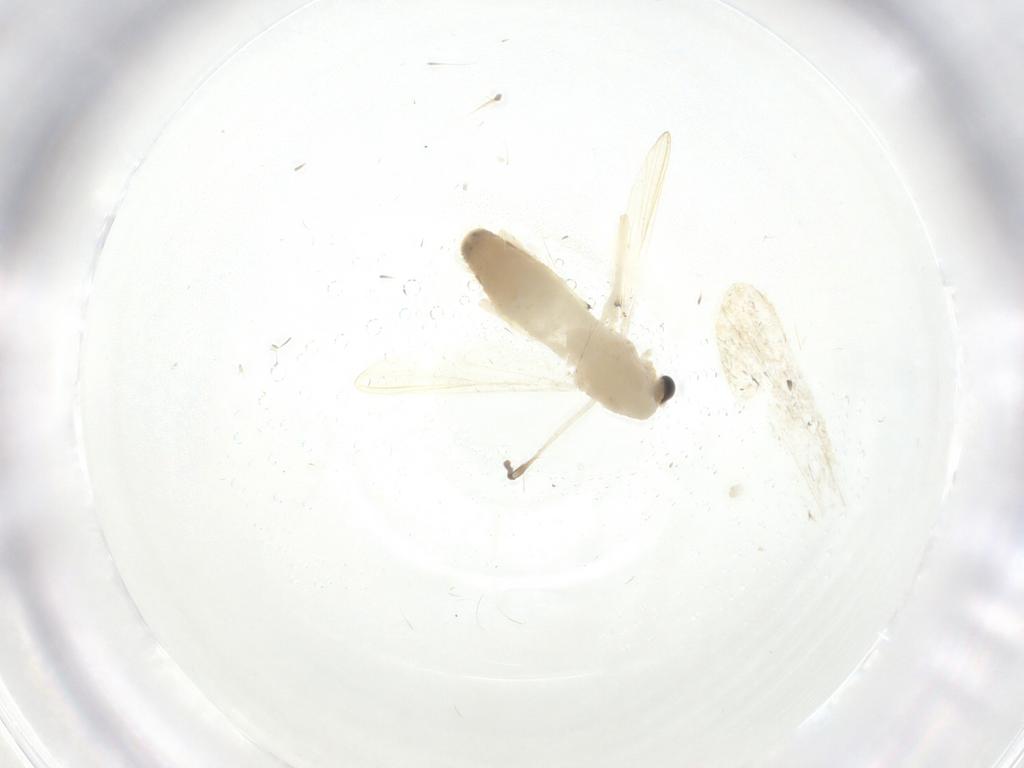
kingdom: Animalia
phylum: Arthropoda
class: Insecta
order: Diptera
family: Chironomidae
